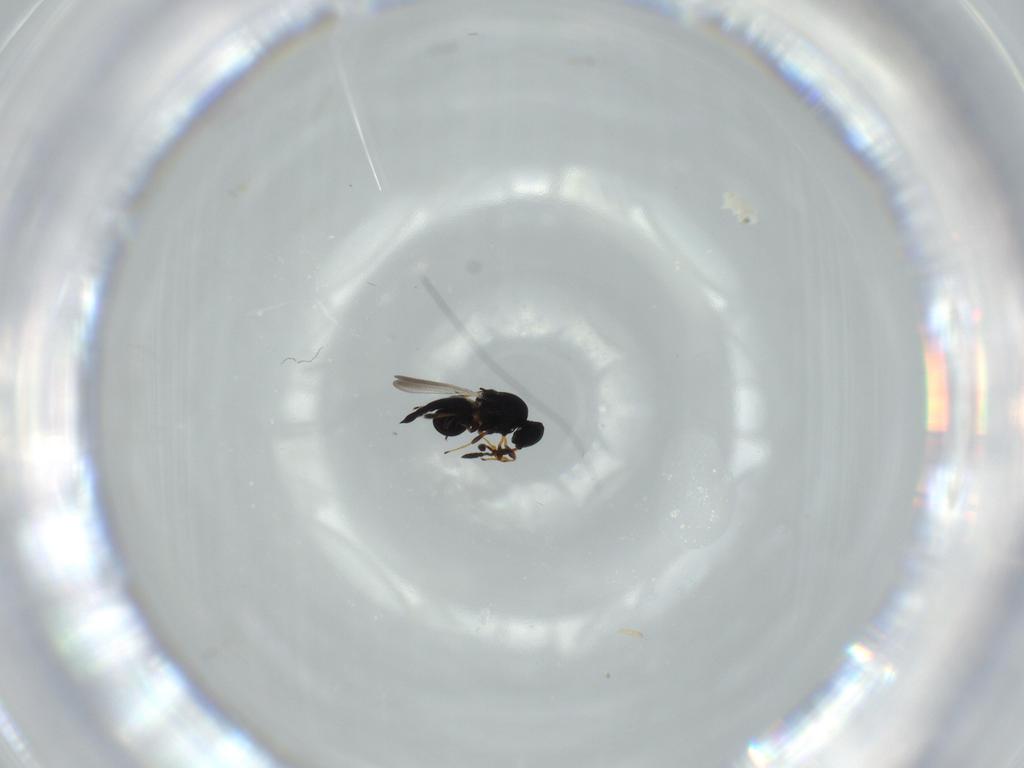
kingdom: Animalia
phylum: Arthropoda
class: Insecta
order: Hymenoptera
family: Platygastridae
